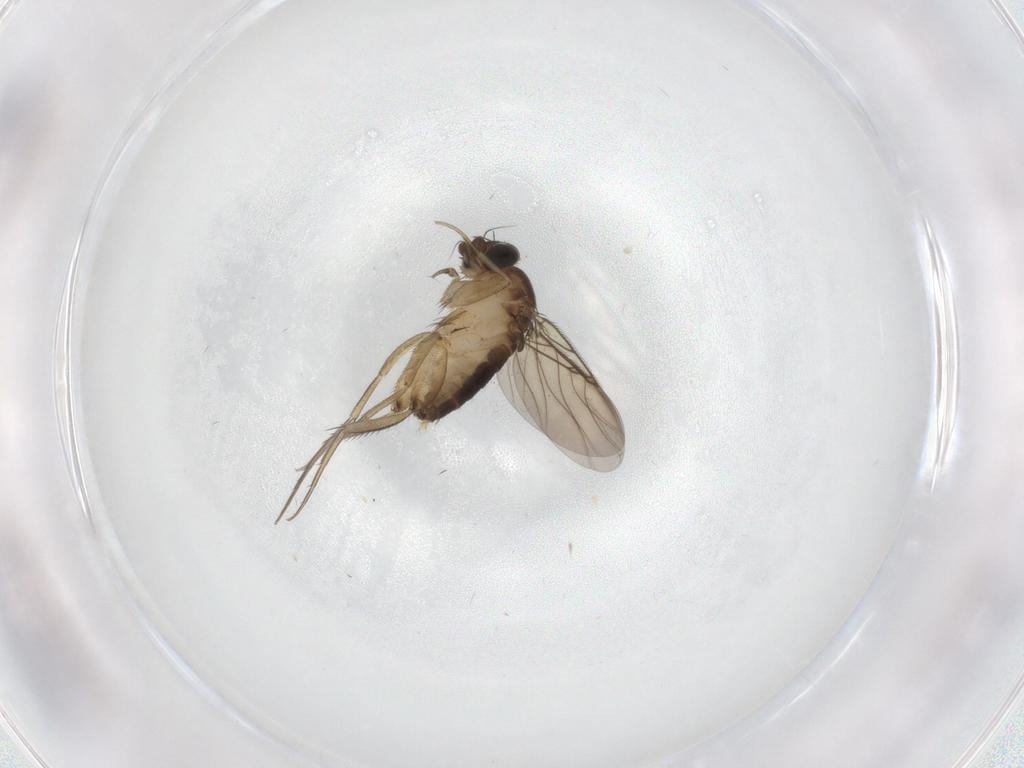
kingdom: Animalia
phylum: Arthropoda
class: Insecta
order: Diptera
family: Phoridae
